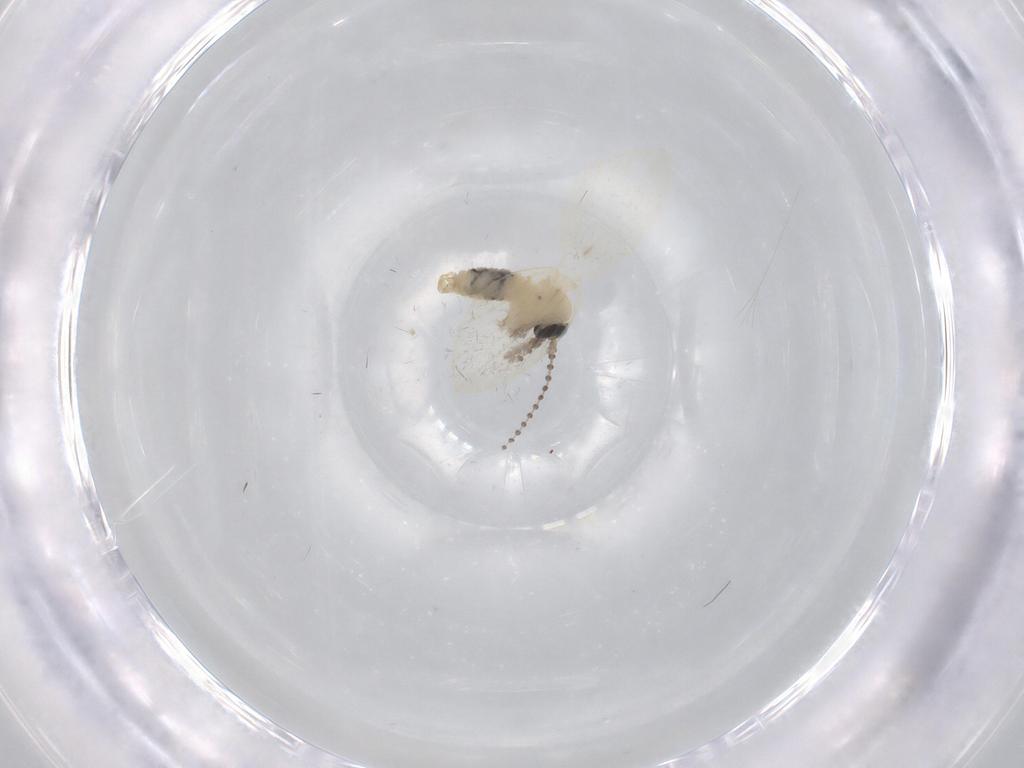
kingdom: Animalia
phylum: Arthropoda
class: Insecta
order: Diptera
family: Psychodidae
